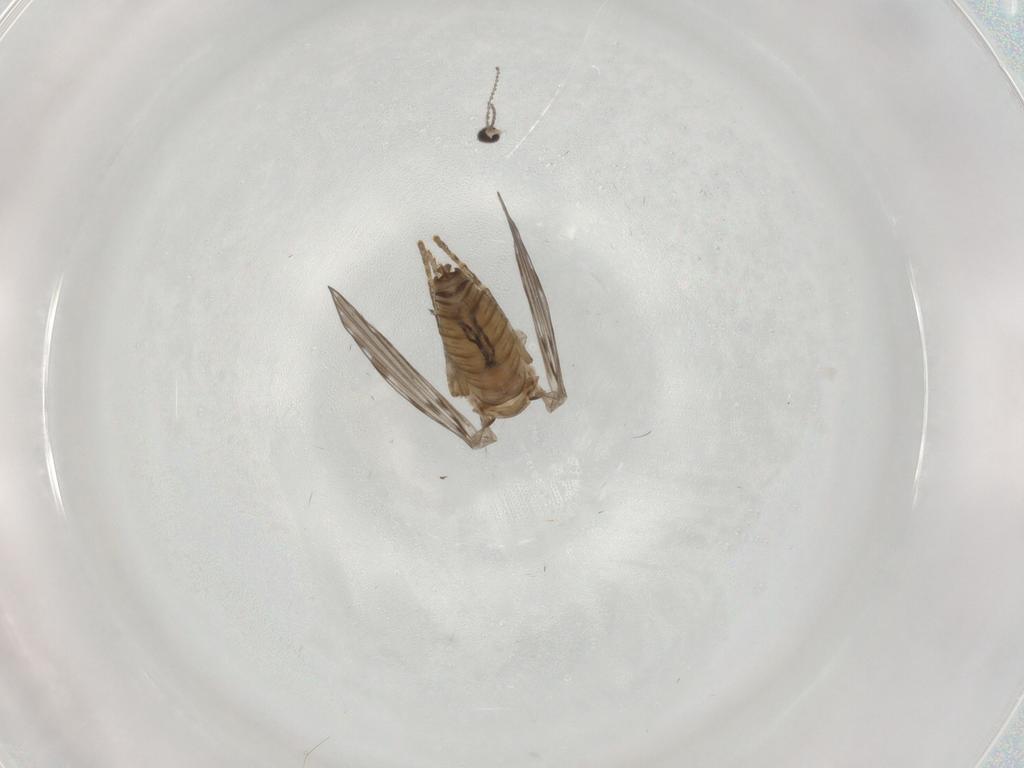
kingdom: Animalia
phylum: Arthropoda
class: Insecta
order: Diptera
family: Psychodidae
